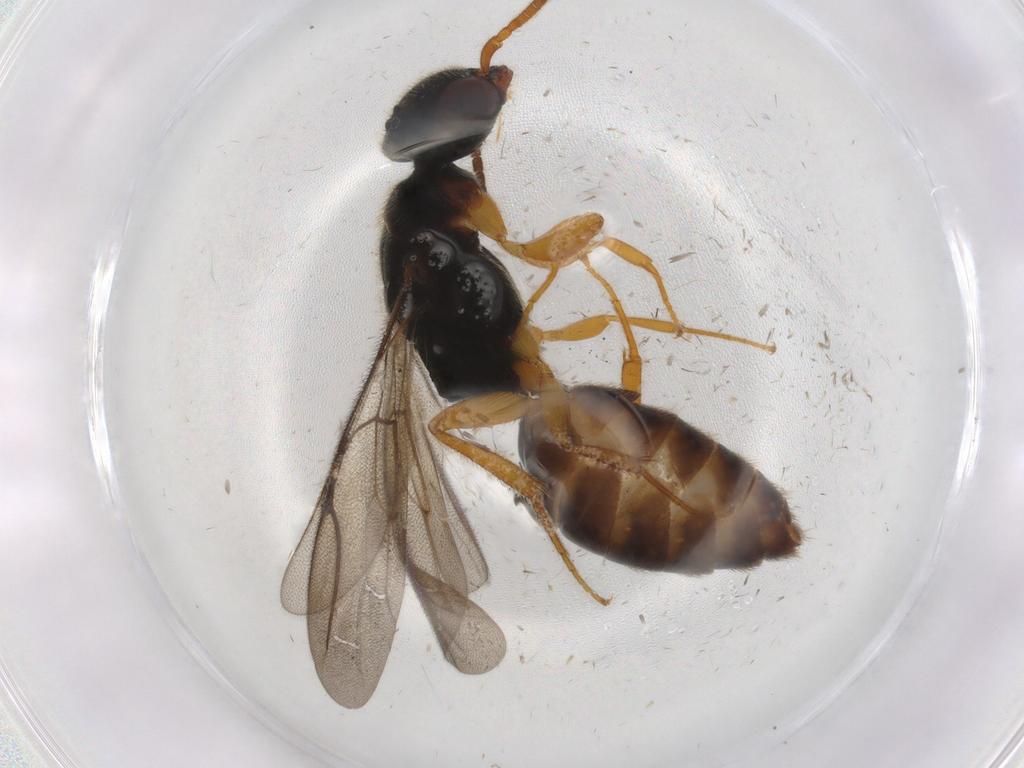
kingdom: Animalia
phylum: Arthropoda
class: Insecta
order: Hymenoptera
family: Bethylidae
